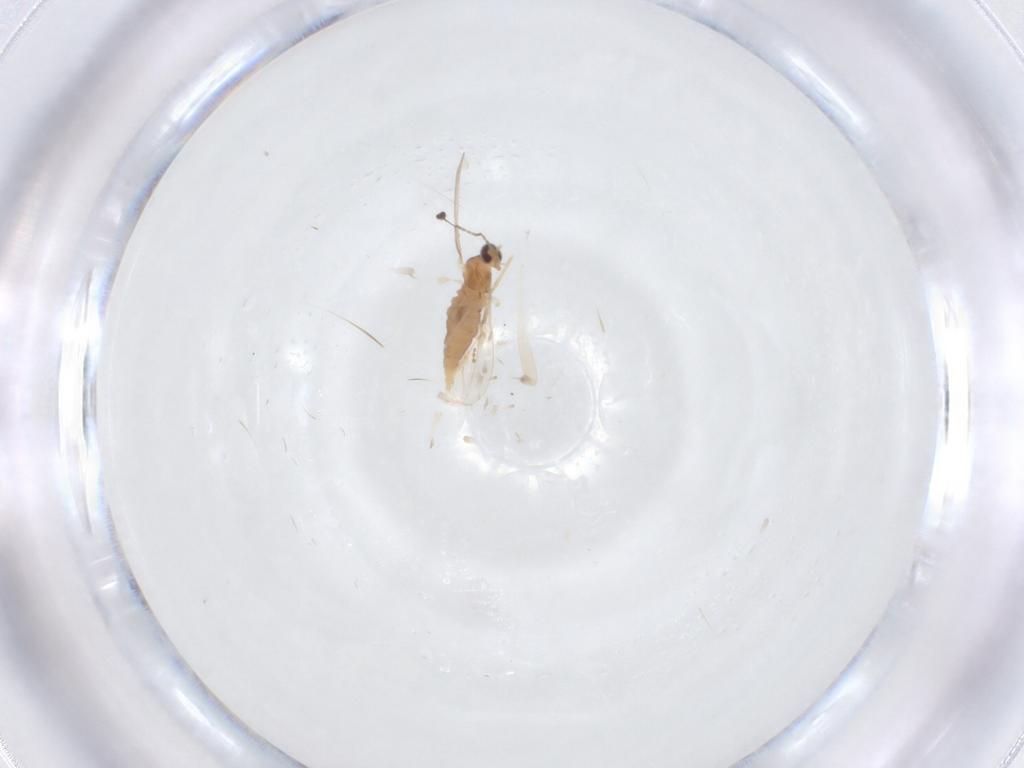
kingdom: Animalia
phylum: Arthropoda
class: Insecta
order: Diptera
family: Cecidomyiidae
